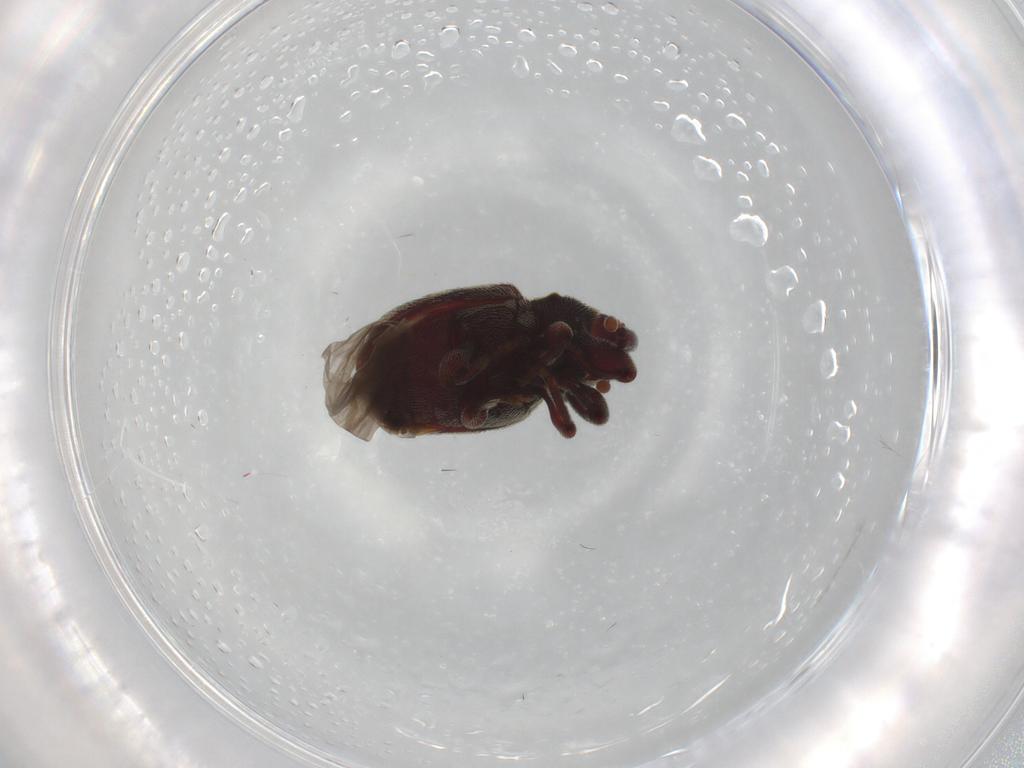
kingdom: Animalia
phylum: Arthropoda
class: Insecta
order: Coleoptera
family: Curculionidae
